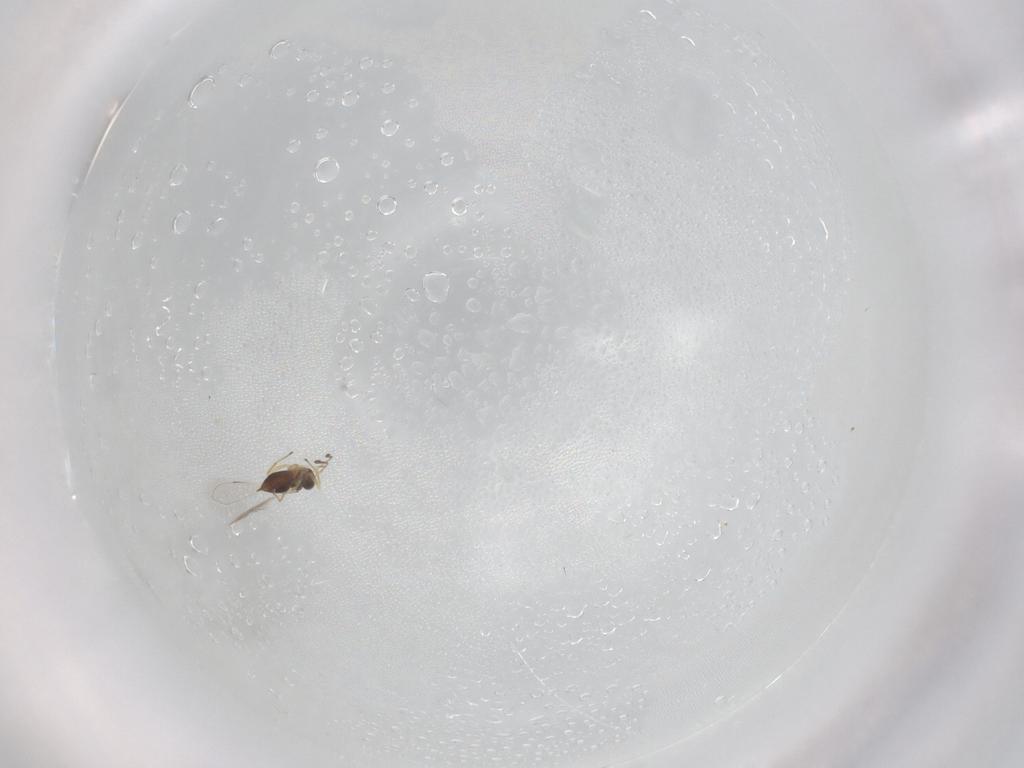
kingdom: Animalia
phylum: Arthropoda
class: Insecta
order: Hymenoptera
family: Mymaridae
